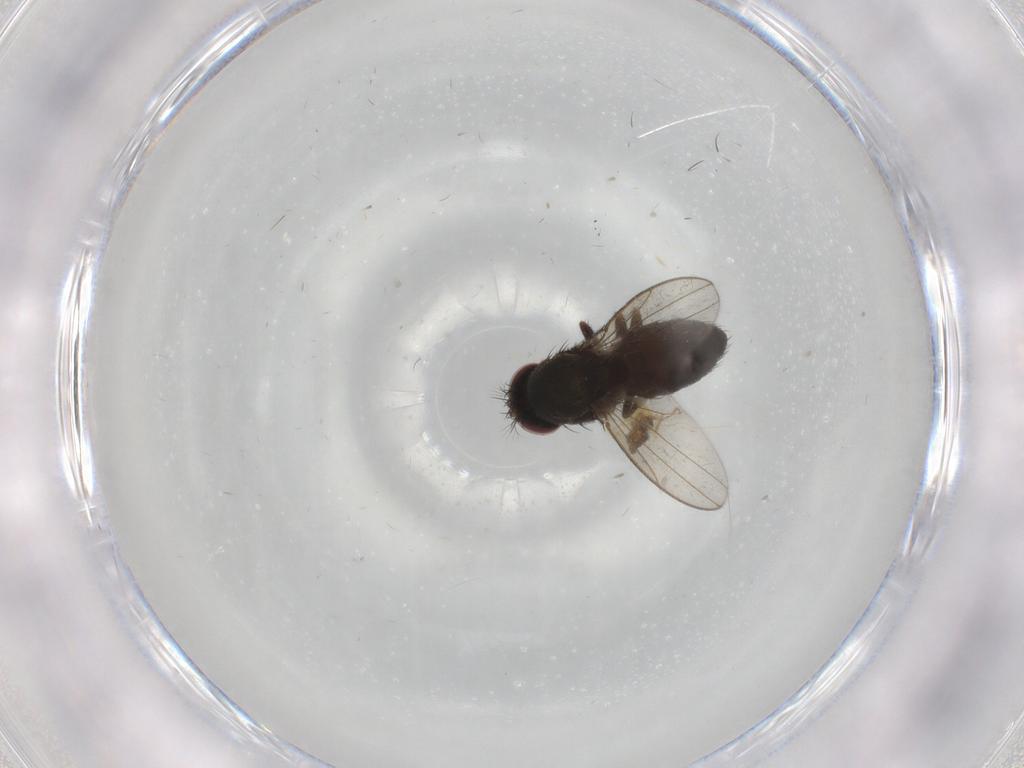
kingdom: Animalia
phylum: Arthropoda
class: Insecta
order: Diptera
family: Cecidomyiidae
